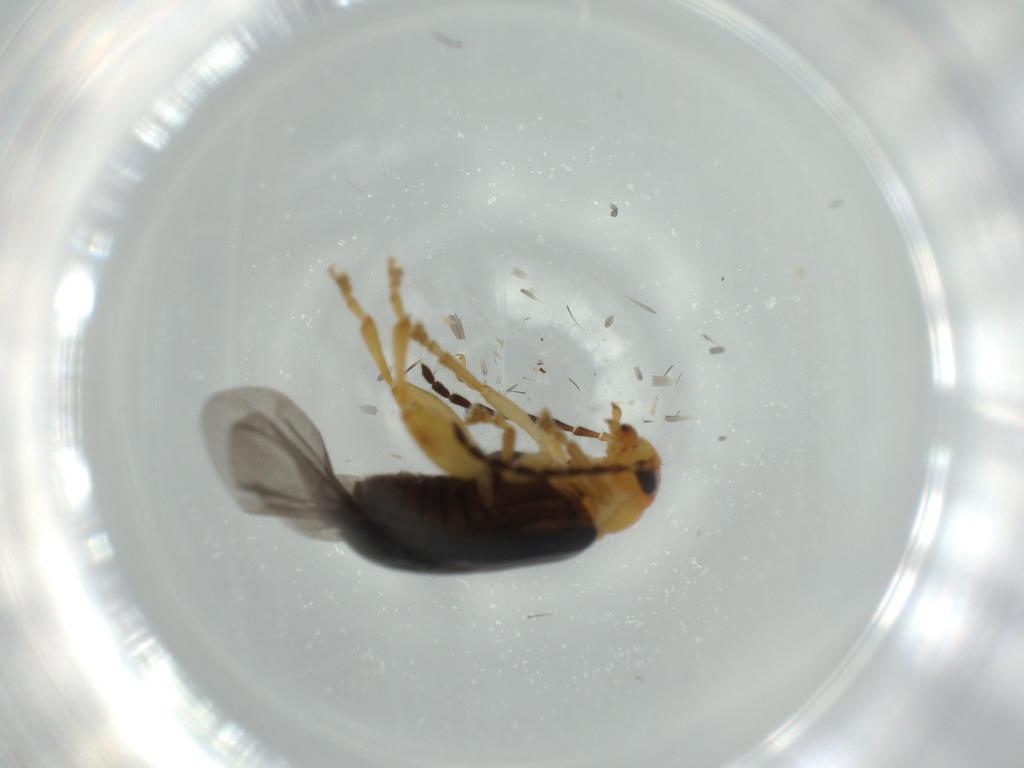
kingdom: Animalia
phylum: Arthropoda
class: Insecta
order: Coleoptera
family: Chrysomelidae
